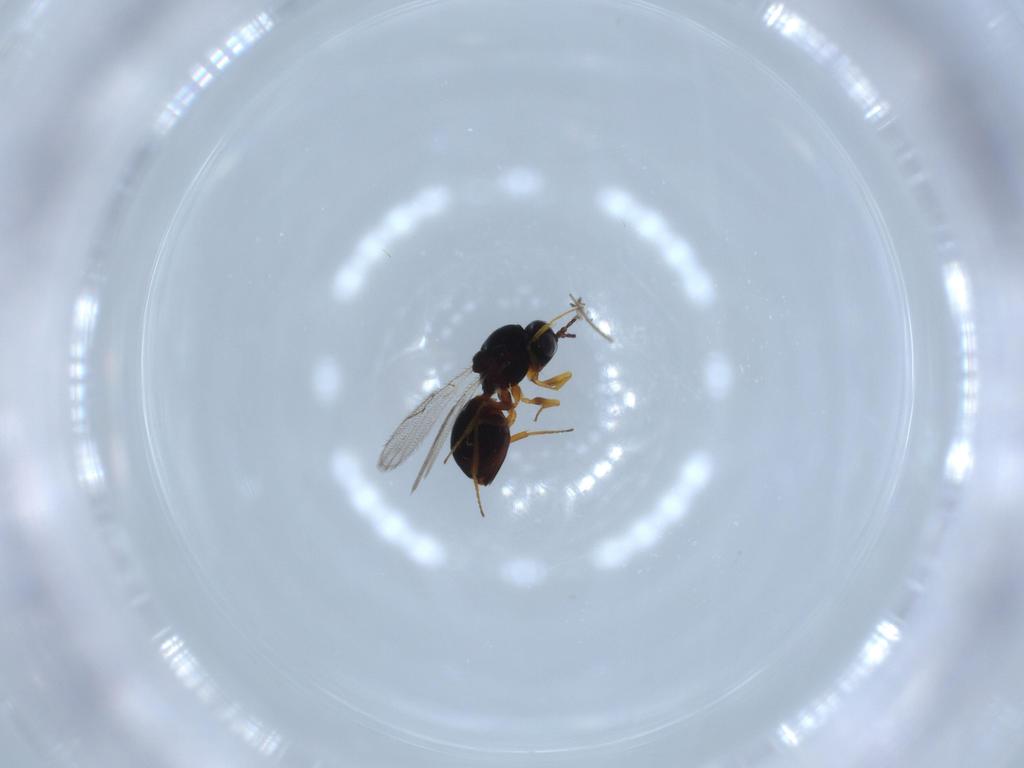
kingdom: Animalia
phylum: Arthropoda
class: Insecta
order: Hymenoptera
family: Figitidae
